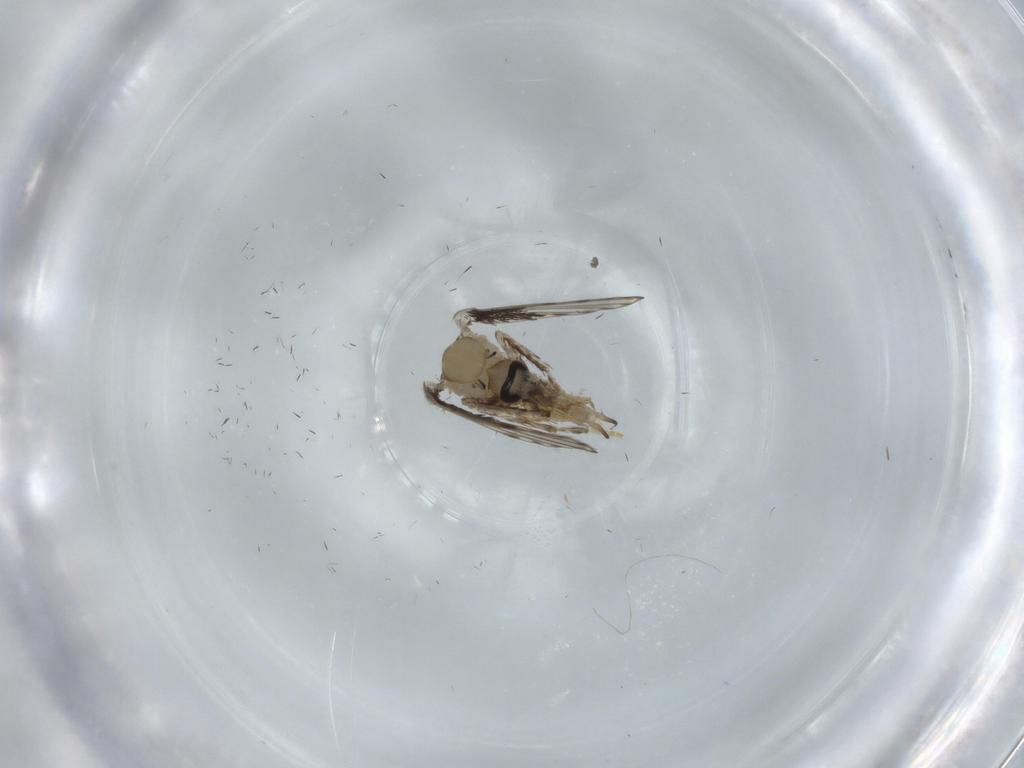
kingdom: Animalia
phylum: Arthropoda
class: Insecta
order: Diptera
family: Psychodidae
